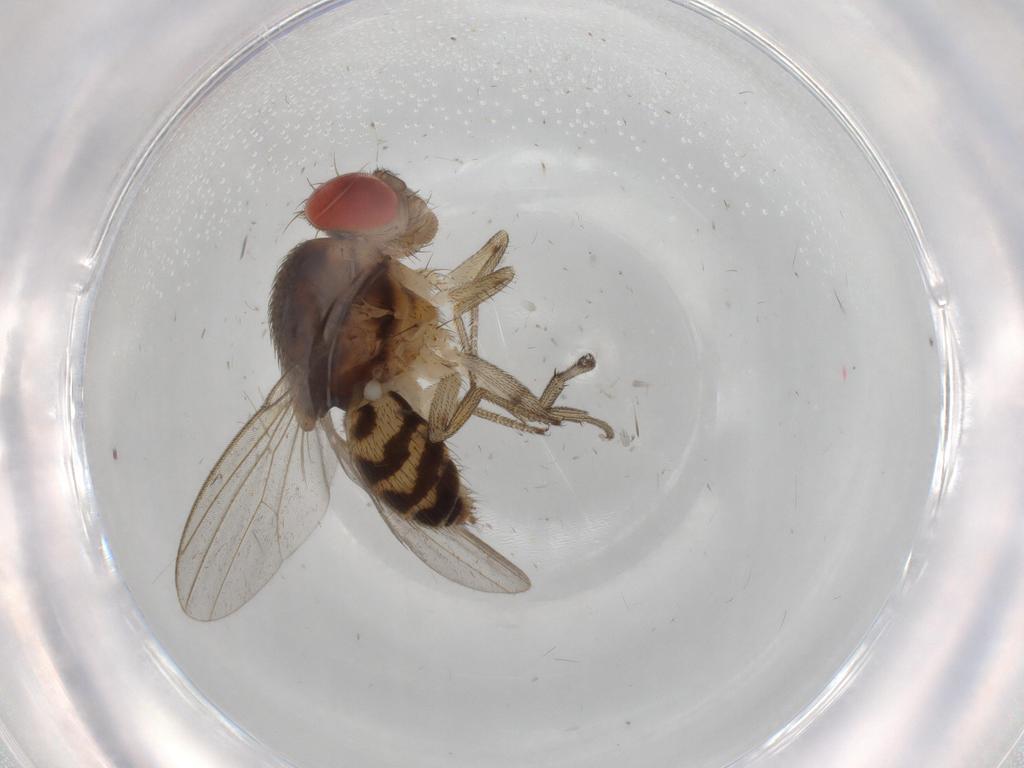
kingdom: Animalia
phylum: Arthropoda
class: Insecta
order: Diptera
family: Drosophilidae
